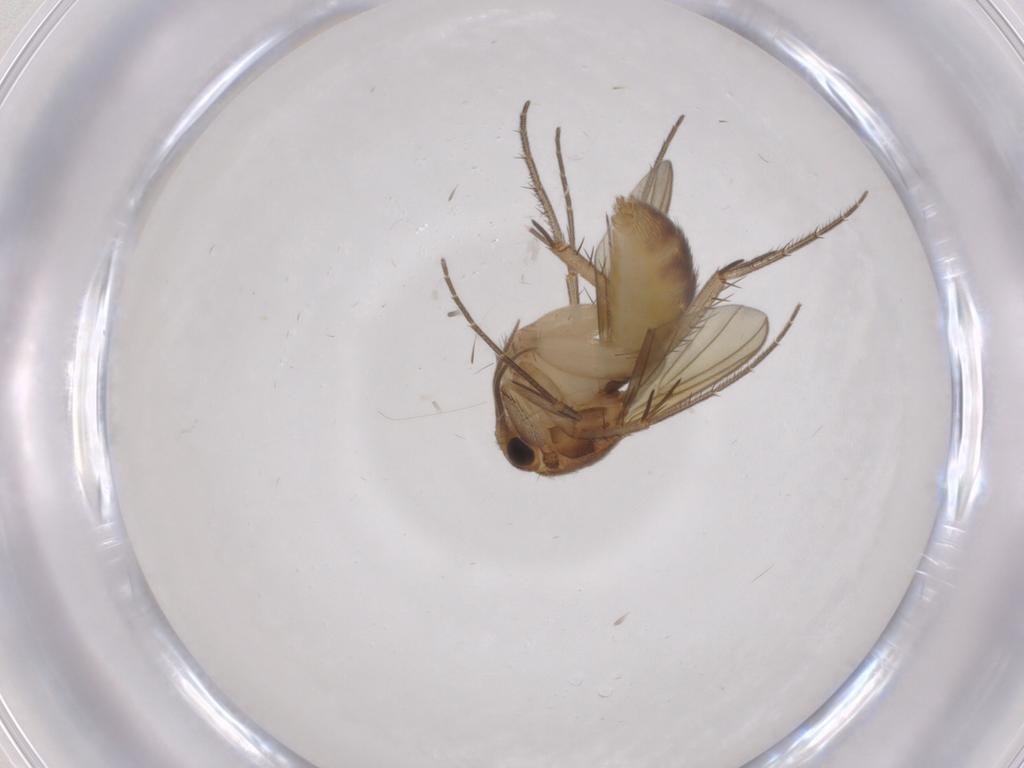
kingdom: Animalia
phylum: Arthropoda
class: Insecta
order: Diptera
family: Mycetophilidae
